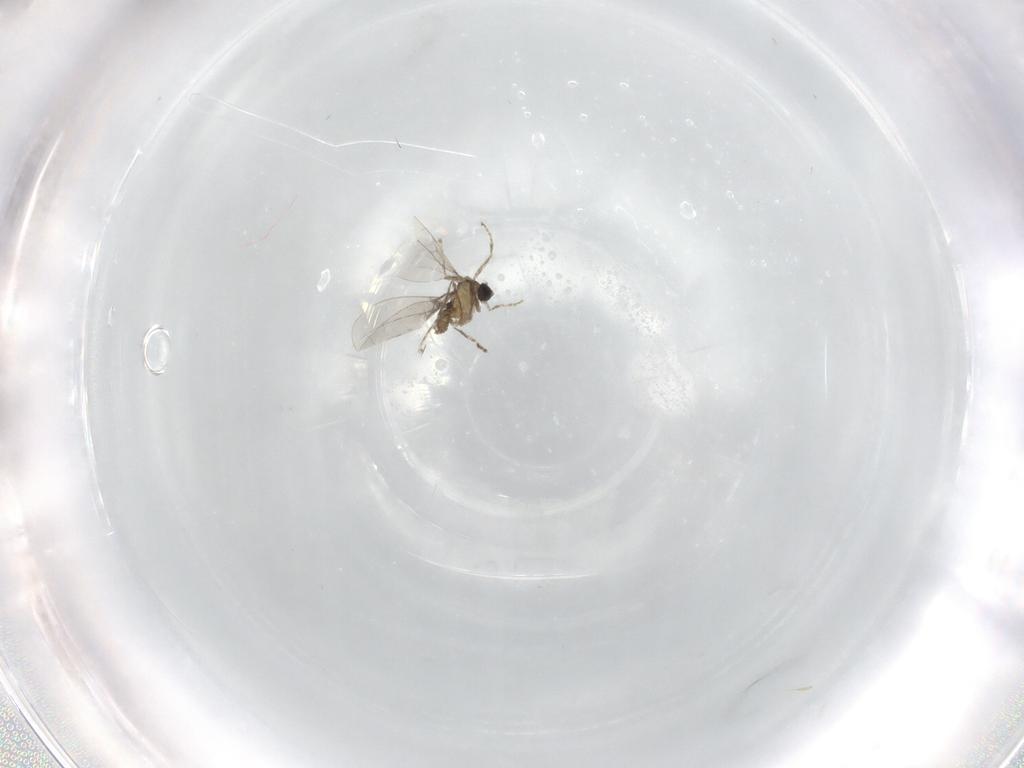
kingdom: Animalia
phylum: Arthropoda
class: Insecta
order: Diptera
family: Cecidomyiidae
